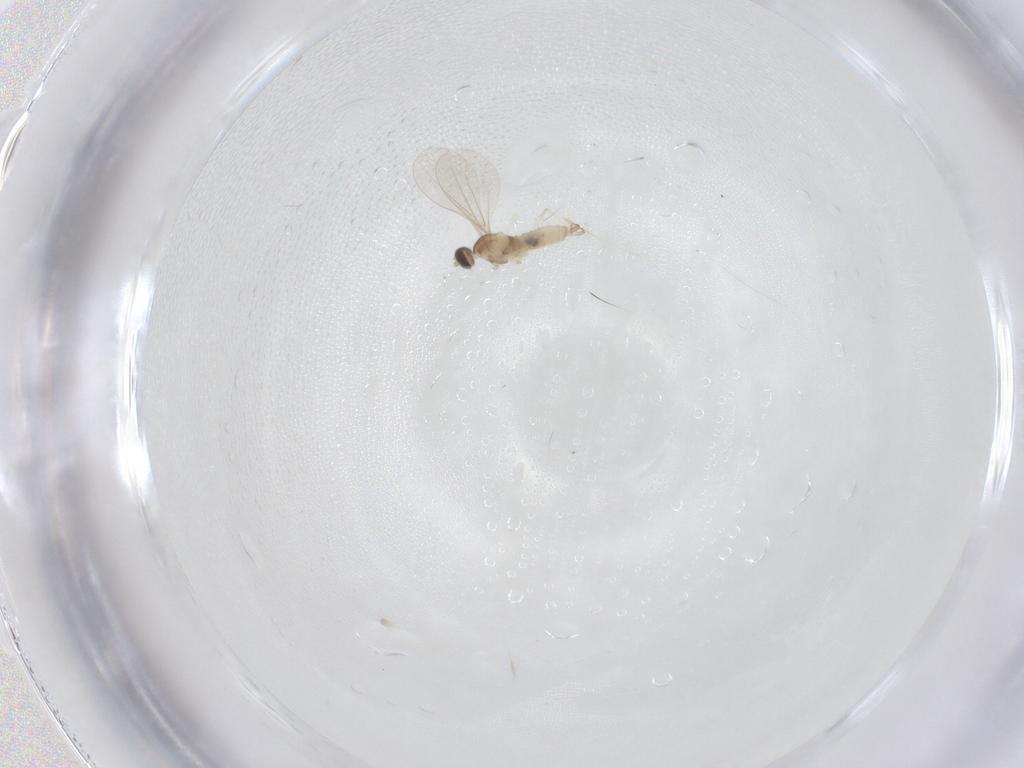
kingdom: Animalia
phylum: Arthropoda
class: Insecta
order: Diptera
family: Cecidomyiidae
